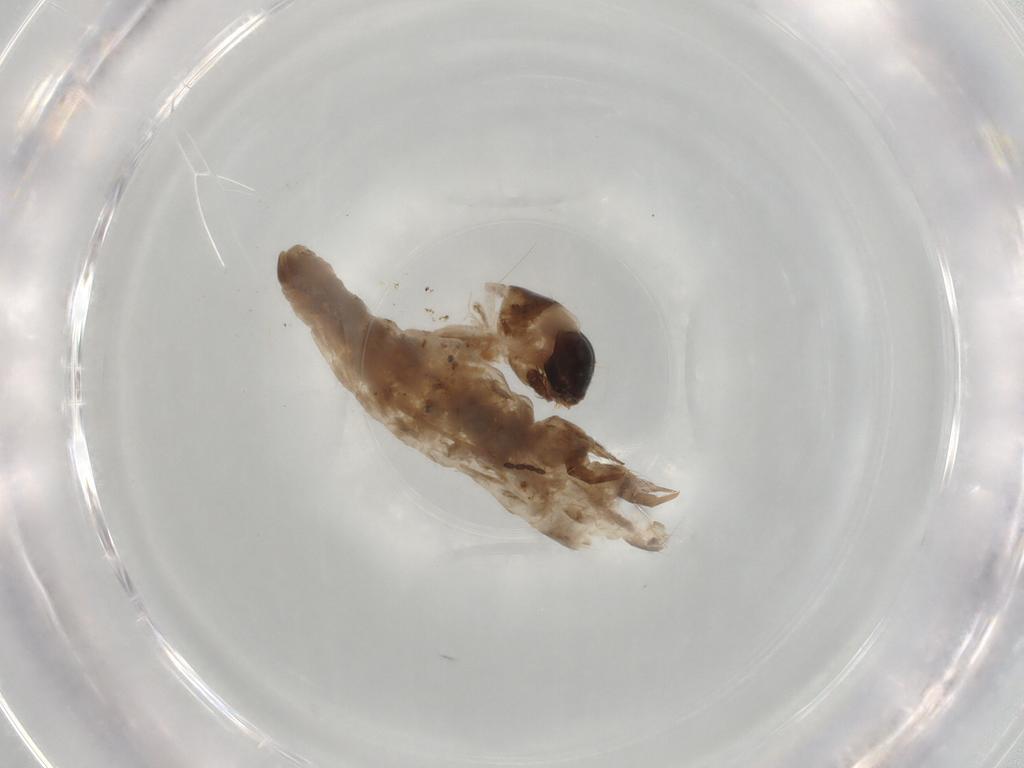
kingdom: Animalia
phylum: Arthropoda
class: Insecta
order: Lepidoptera
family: Psychidae
